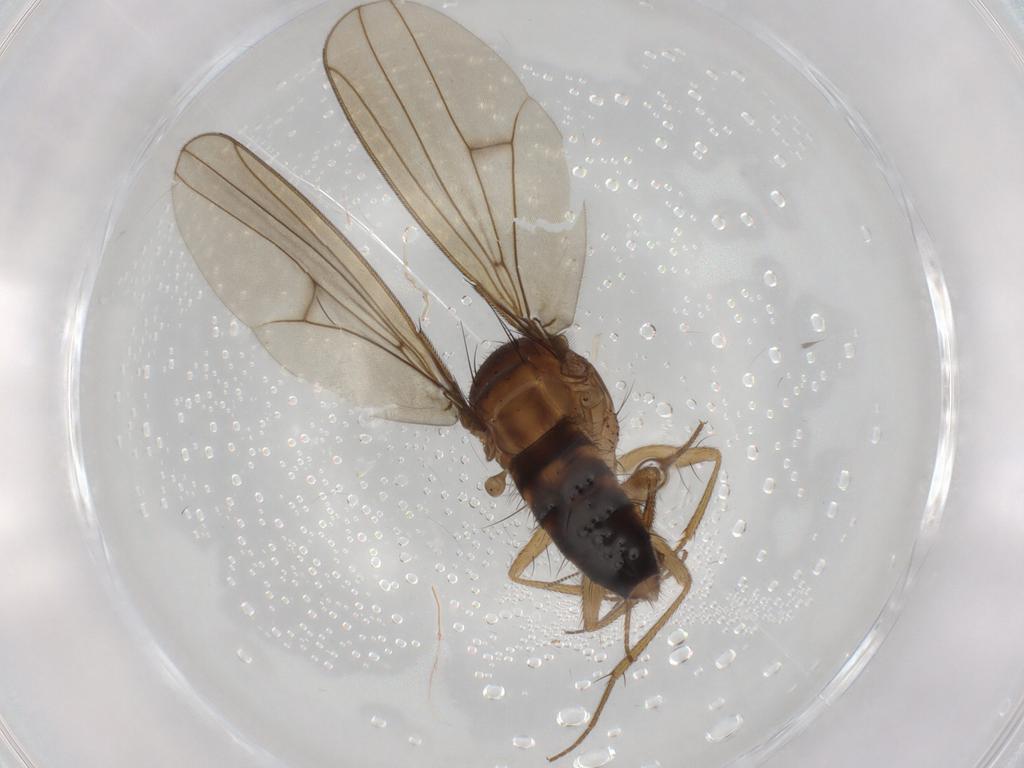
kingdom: Animalia
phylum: Arthropoda
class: Insecta
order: Diptera
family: Drosophilidae
